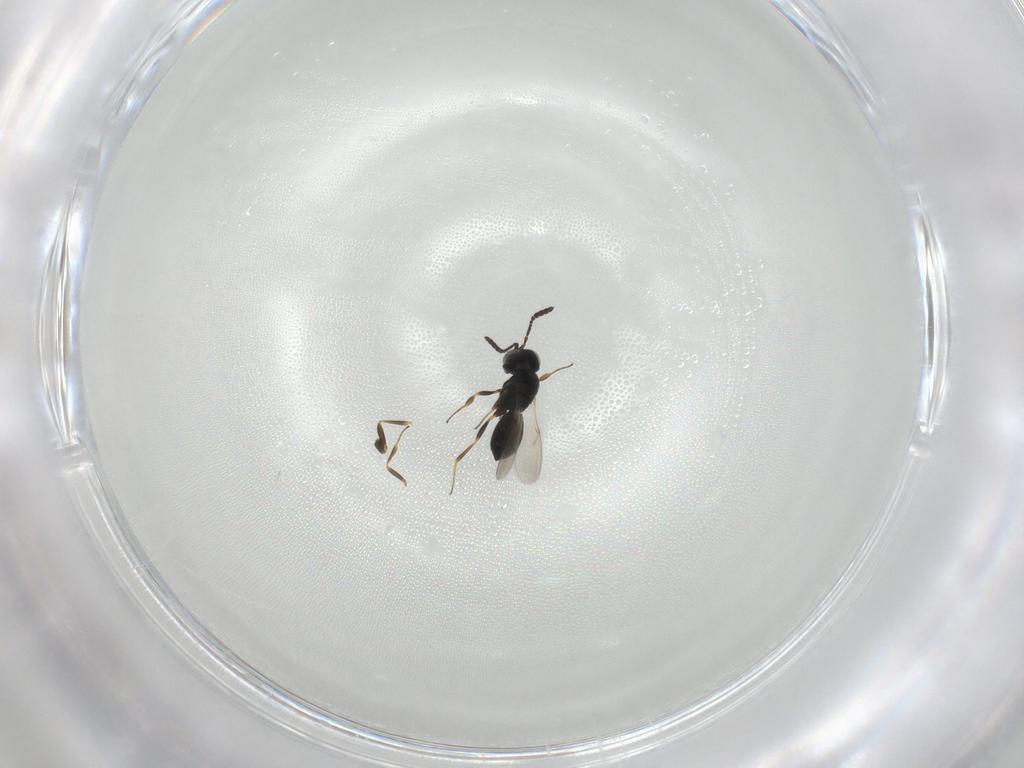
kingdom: Animalia
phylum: Arthropoda
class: Insecta
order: Hymenoptera
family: Scelionidae
